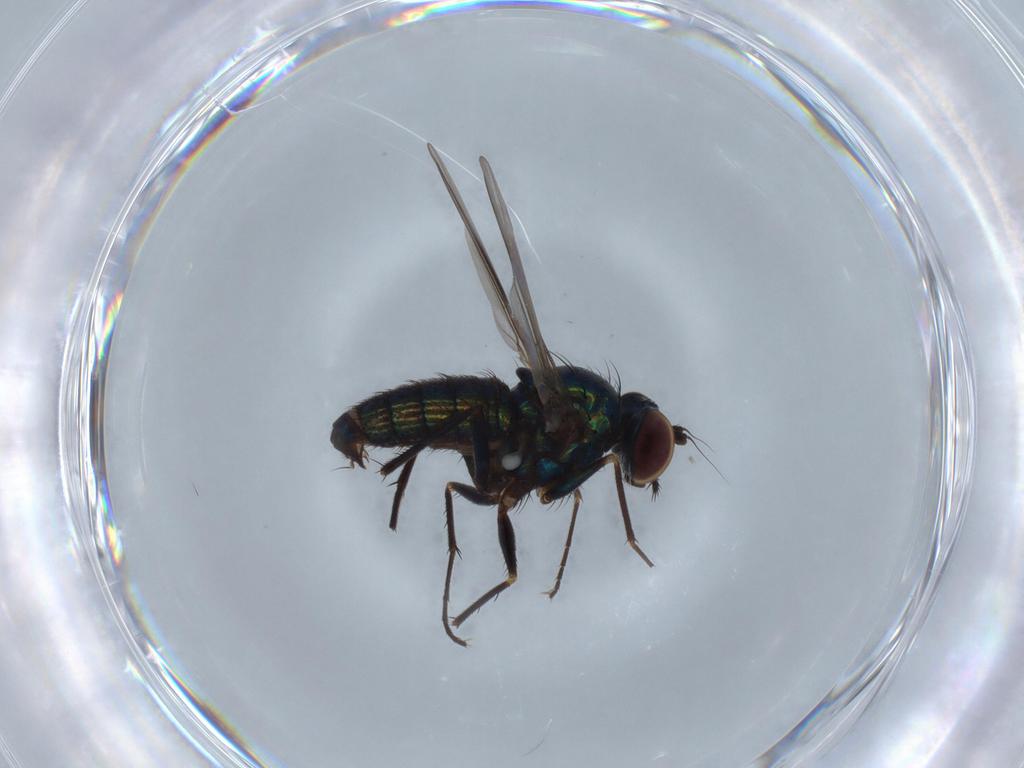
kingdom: Animalia
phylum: Arthropoda
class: Insecta
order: Diptera
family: Dolichopodidae
